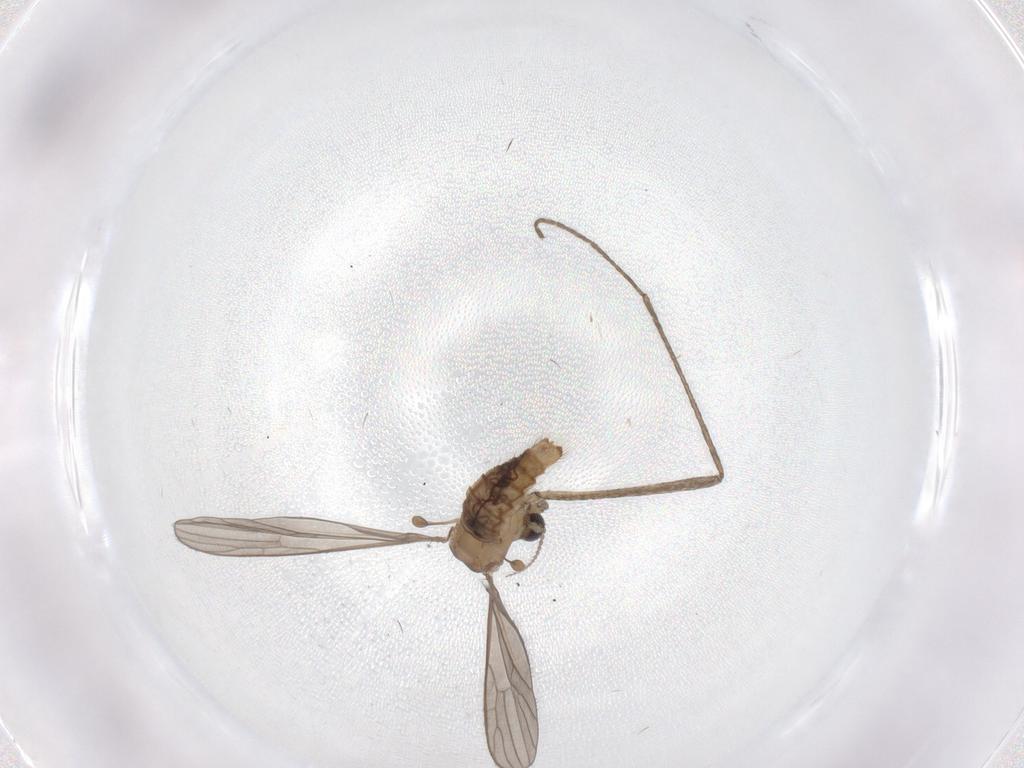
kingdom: Animalia
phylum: Arthropoda
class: Insecta
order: Diptera
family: Chironomidae
